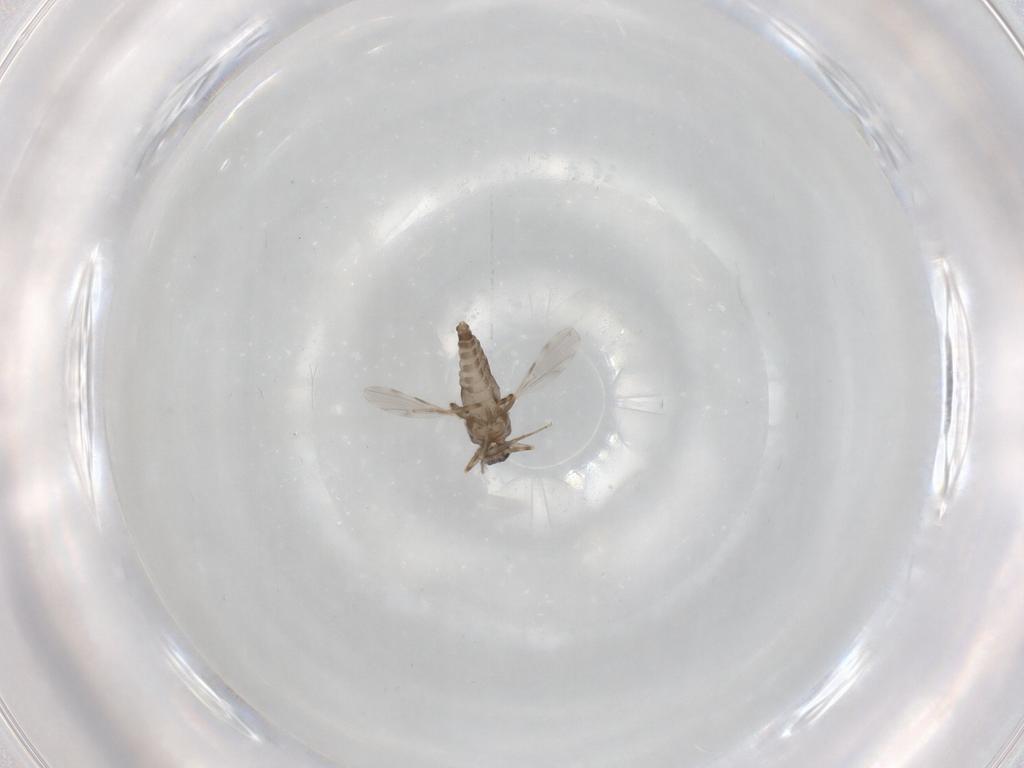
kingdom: Animalia
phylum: Arthropoda
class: Insecta
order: Diptera
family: Ceratopogonidae
